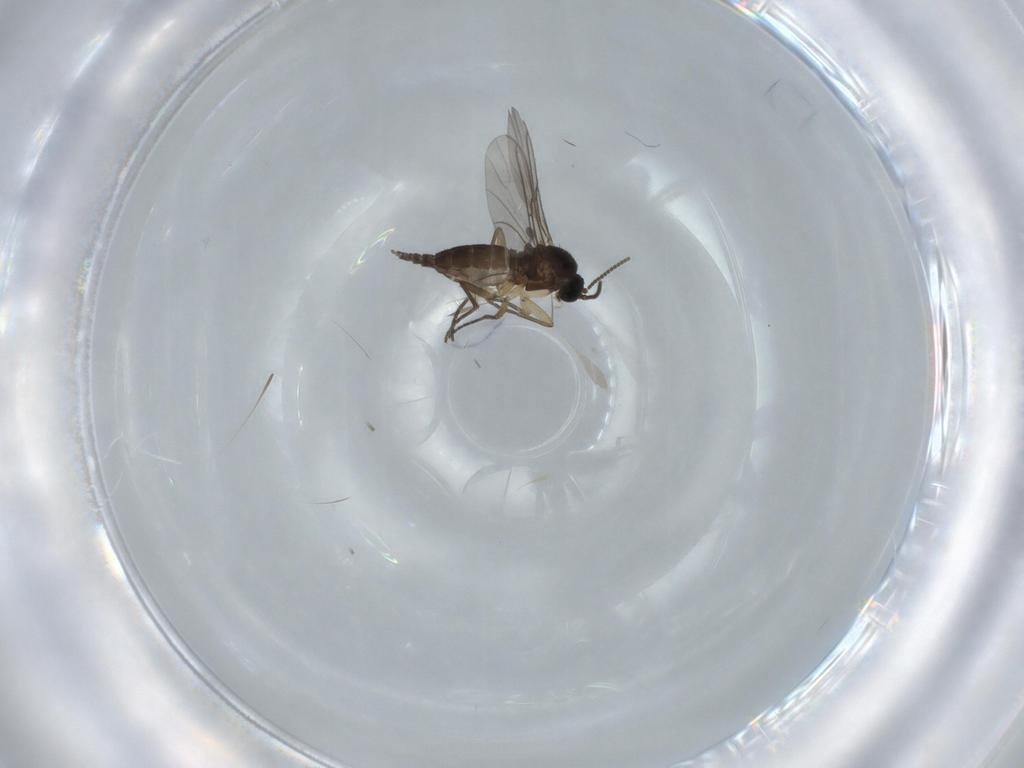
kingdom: Animalia
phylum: Arthropoda
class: Insecta
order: Diptera
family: Sciaridae
